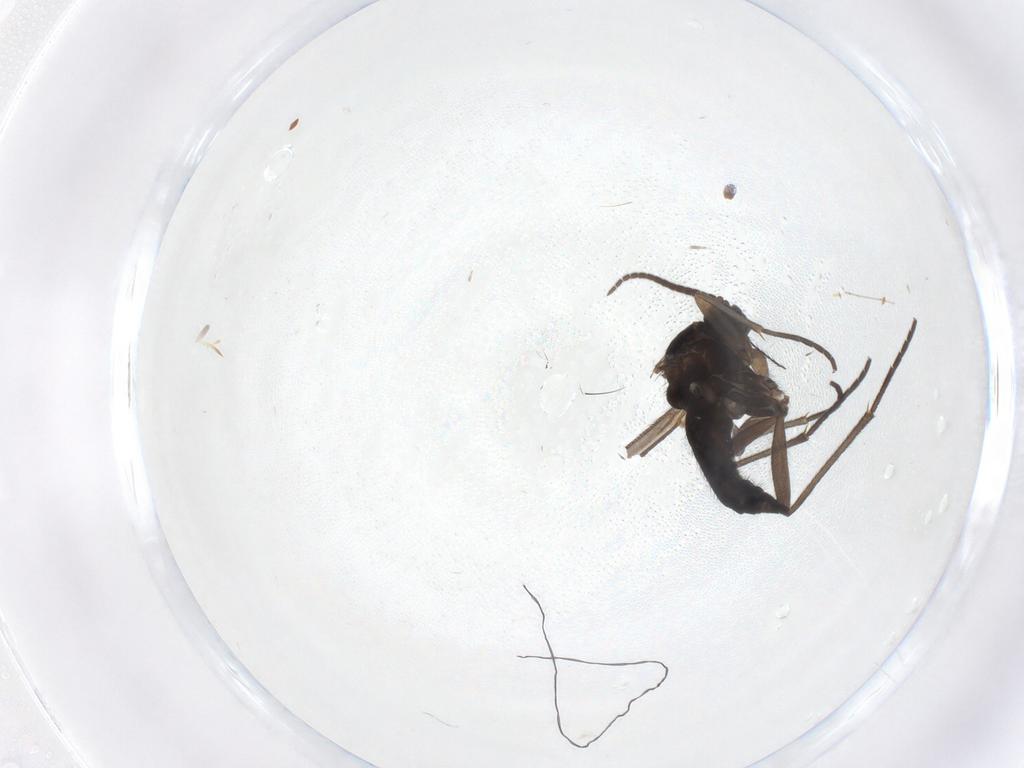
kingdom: Animalia
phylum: Arthropoda
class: Insecta
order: Diptera
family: Sciaridae
